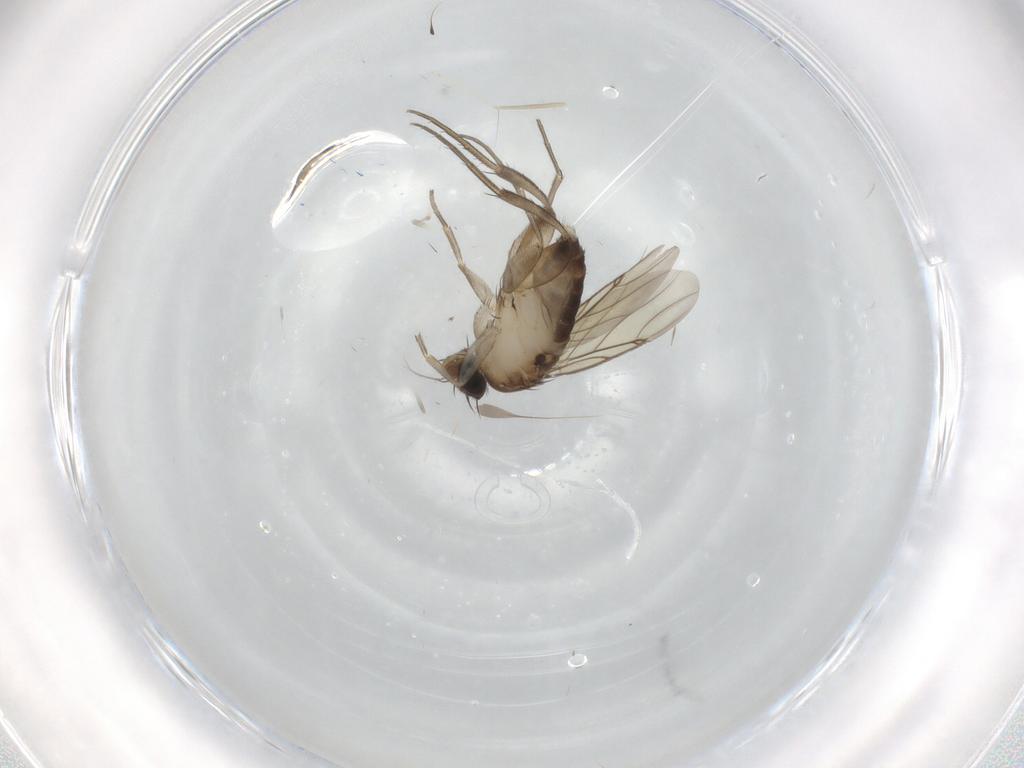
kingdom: Animalia
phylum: Arthropoda
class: Insecta
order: Diptera
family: Phoridae
